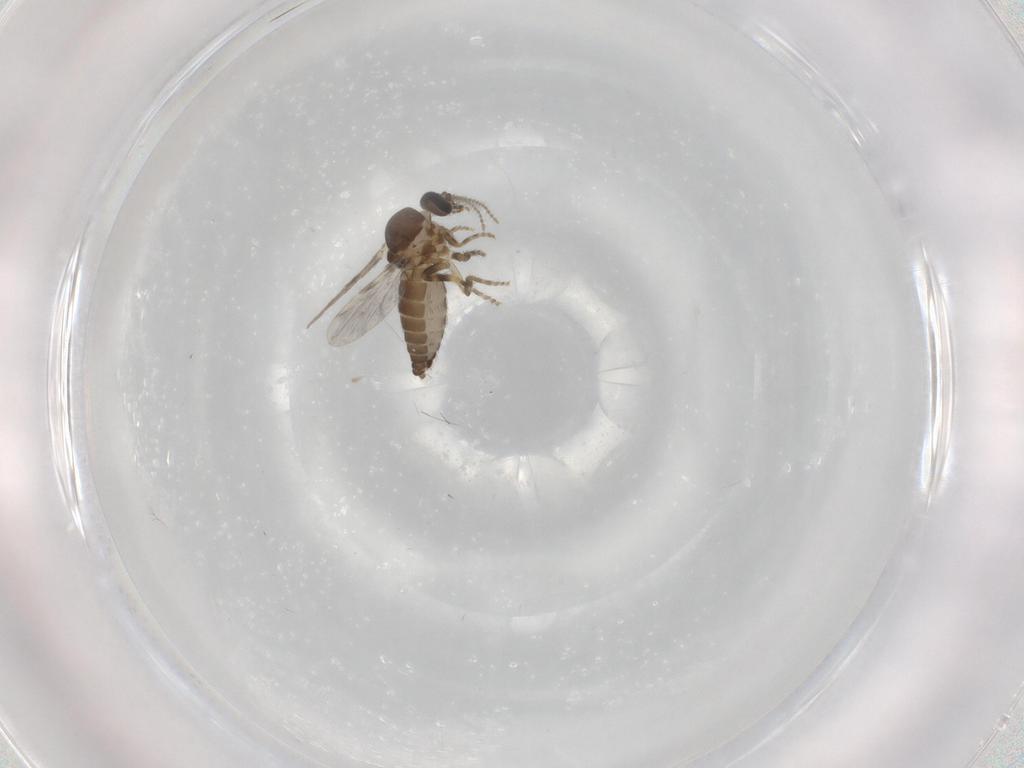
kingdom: Animalia
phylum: Arthropoda
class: Insecta
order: Diptera
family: Ceratopogonidae
